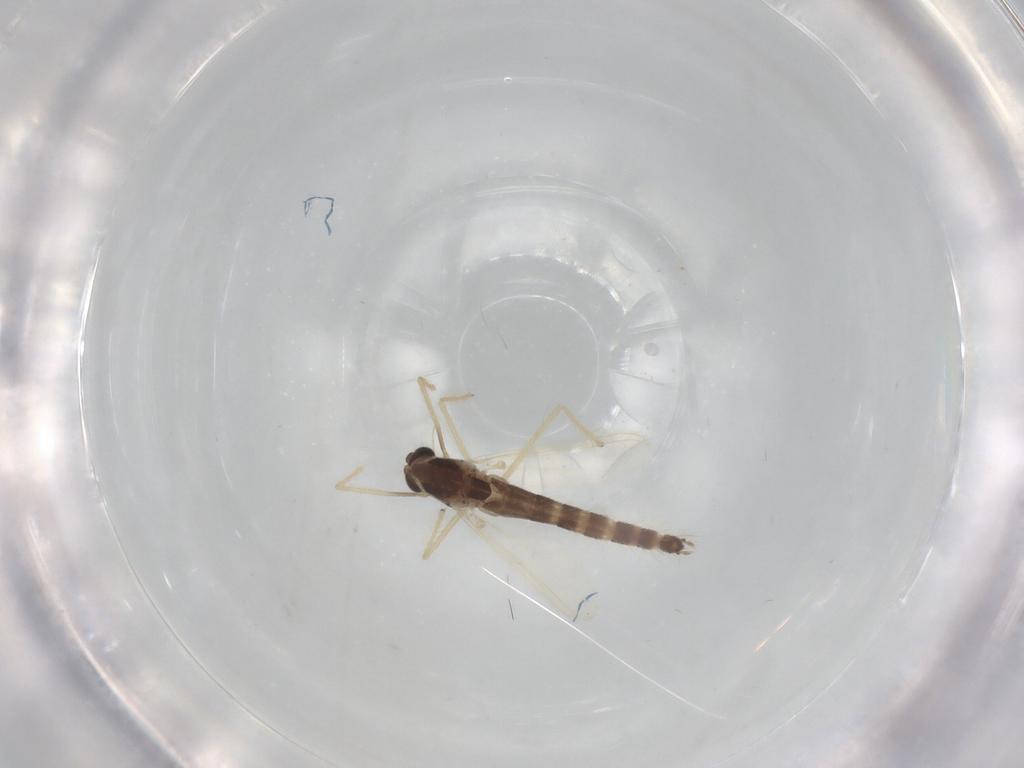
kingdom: Animalia
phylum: Arthropoda
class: Insecta
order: Diptera
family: Chironomidae
